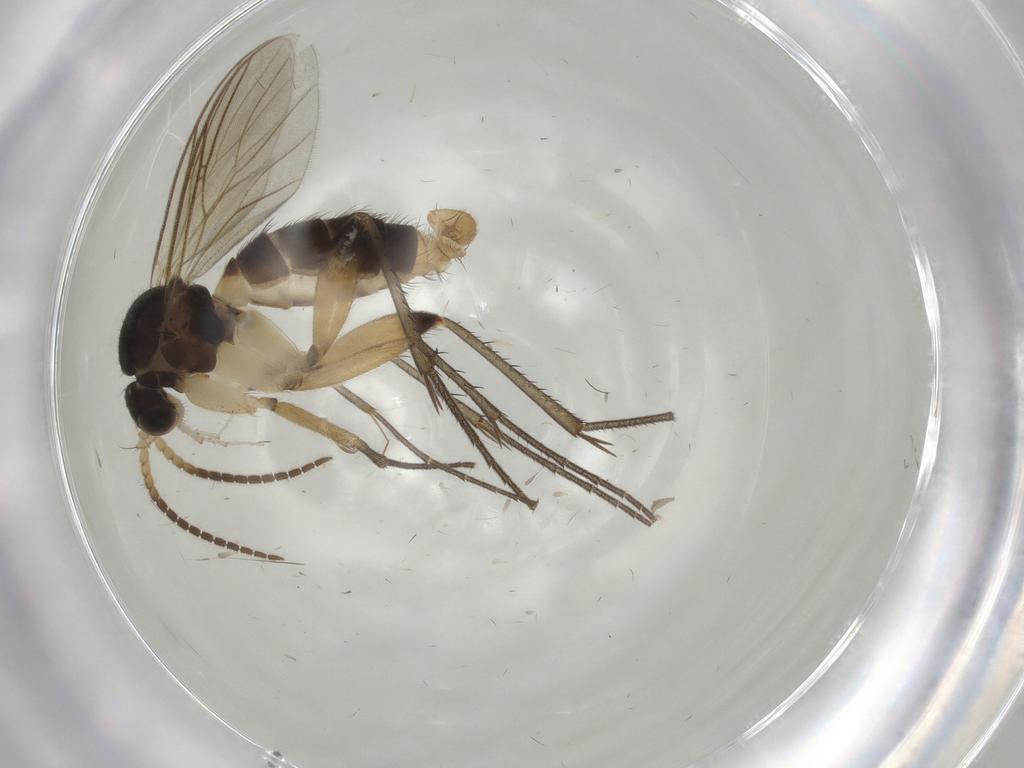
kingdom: Animalia
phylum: Arthropoda
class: Insecta
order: Diptera
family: Mycetophilidae
